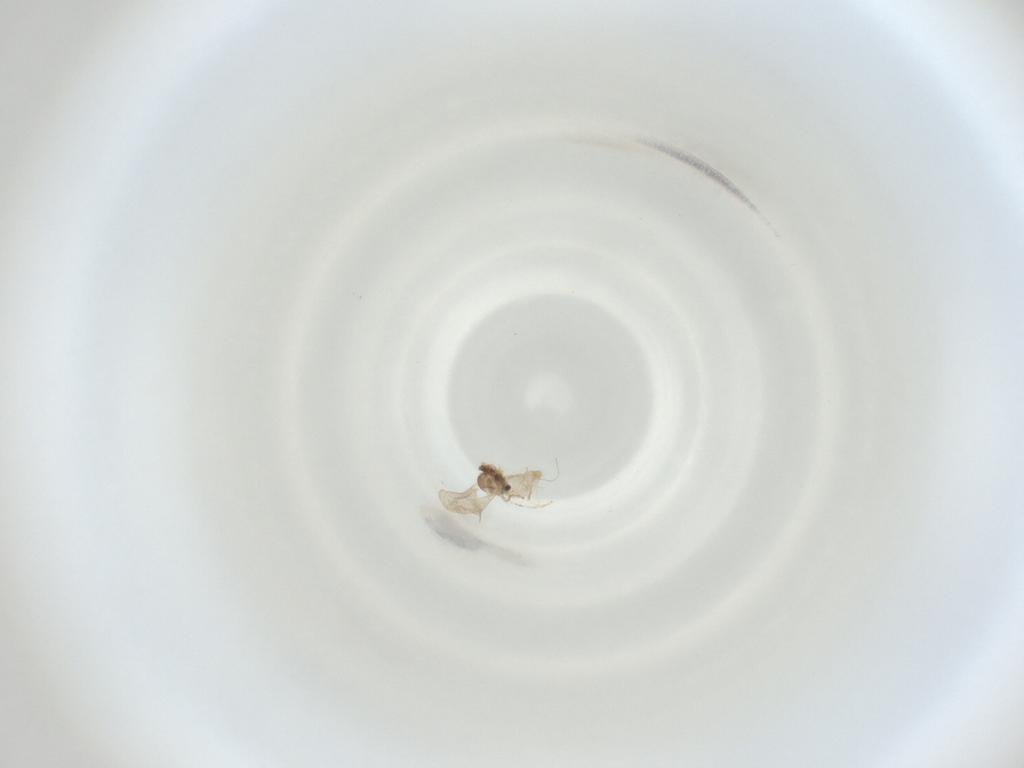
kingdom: Animalia
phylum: Arthropoda
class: Insecta
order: Diptera
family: Cecidomyiidae
